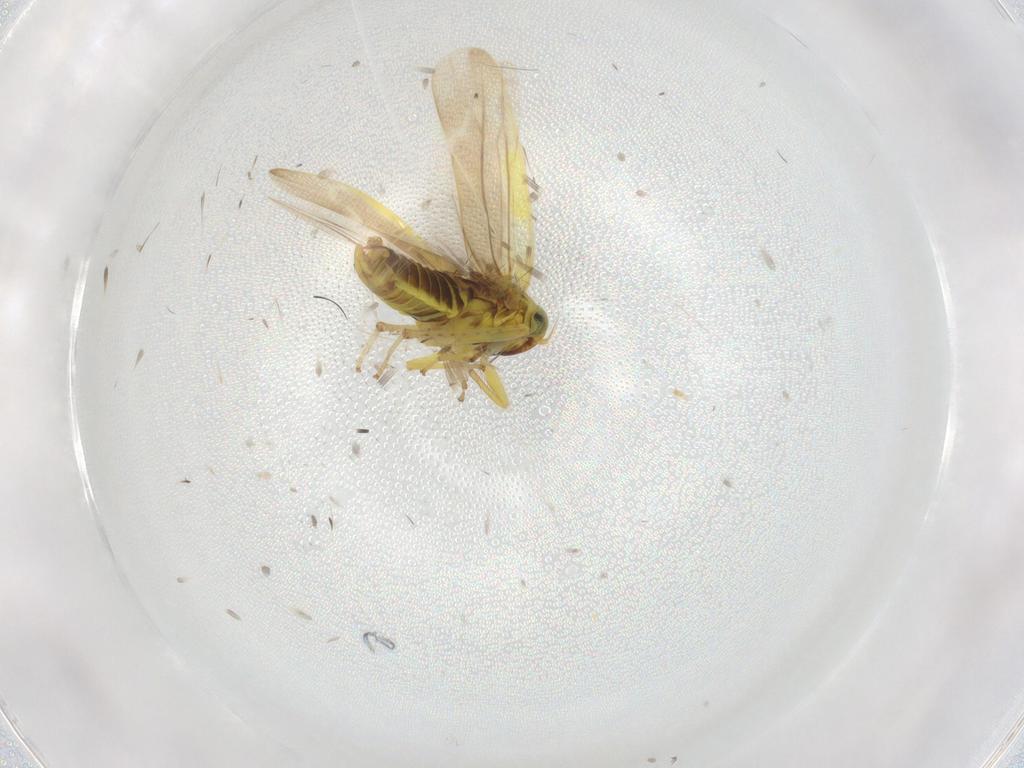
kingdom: Animalia
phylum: Arthropoda
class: Insecta
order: Hemiptera
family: Cicadellidae
